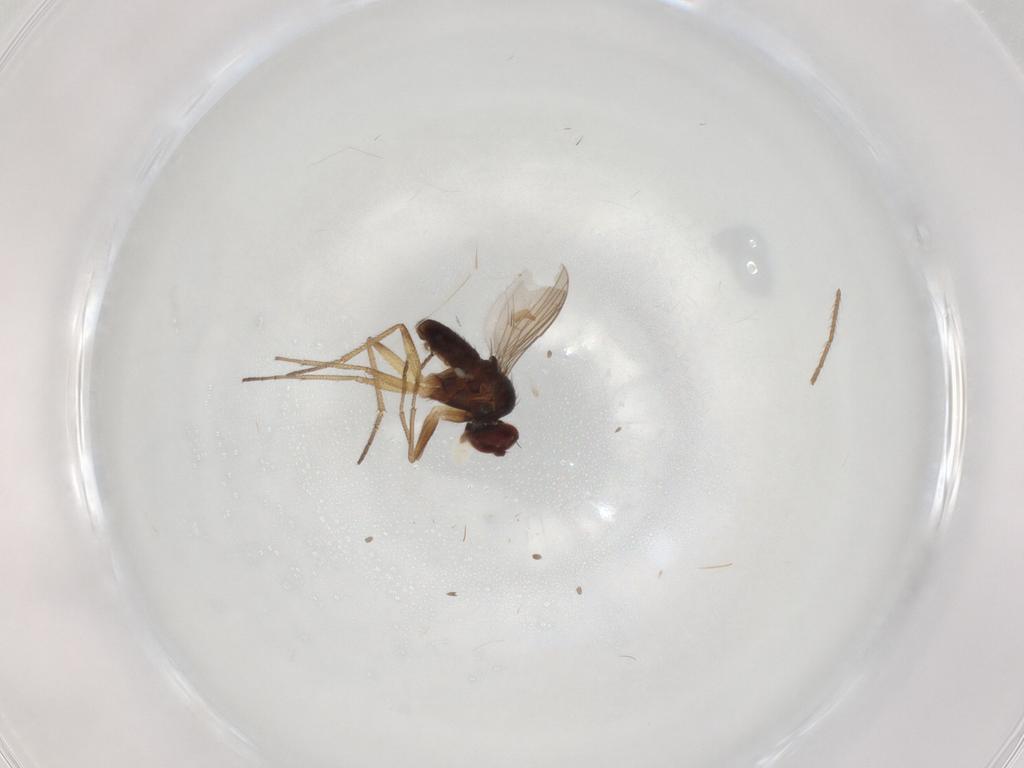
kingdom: Animalia
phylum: Arthropoda
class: Insecta
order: Diptera
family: Dolichopodidae
